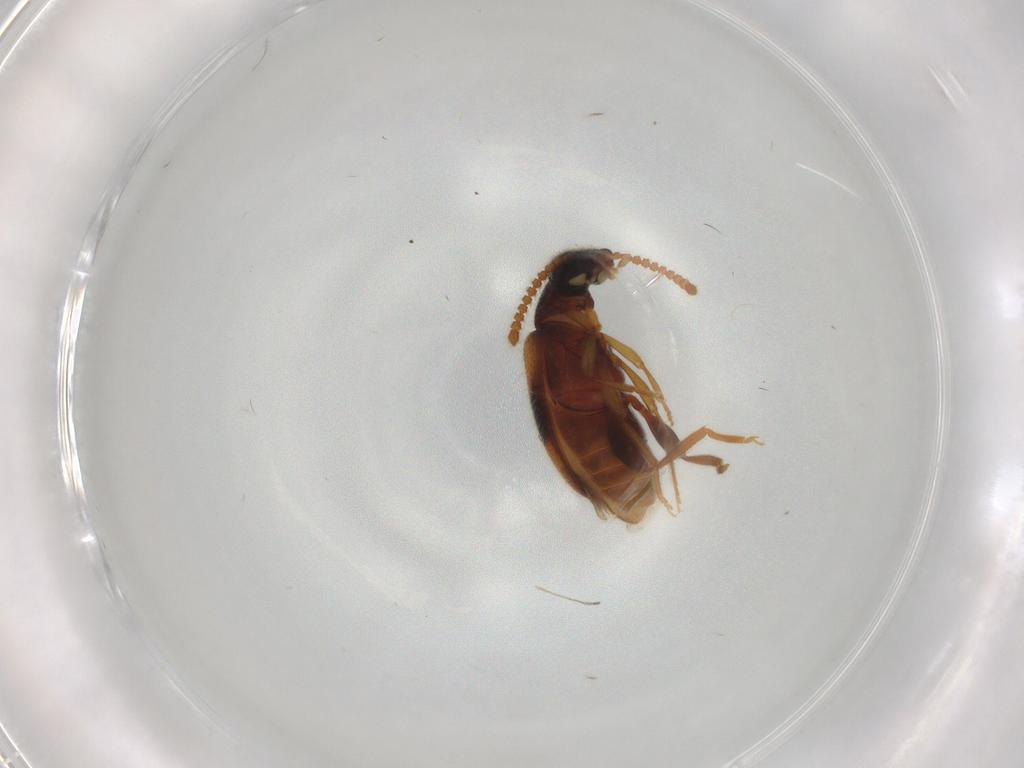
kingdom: Animalia
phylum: Arthropoda
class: Insecta
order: Coleoptera
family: Aderidae
